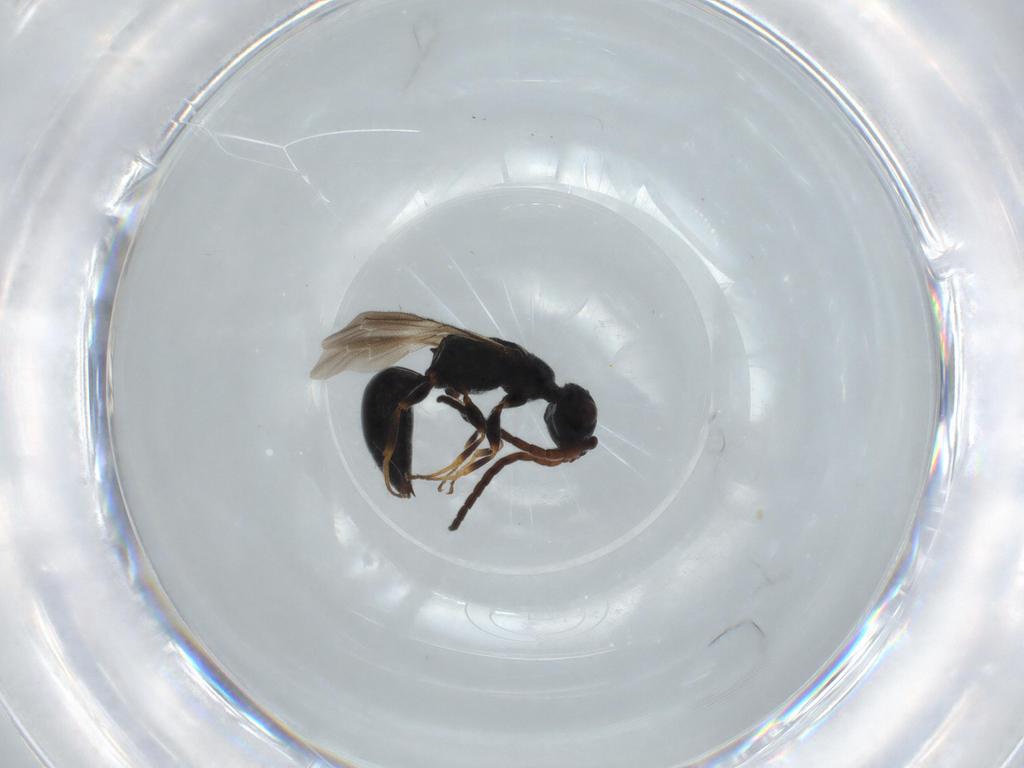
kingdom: Animalia
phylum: Arthropoda
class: Insecta
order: Hymenoptera
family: Bethylidae
